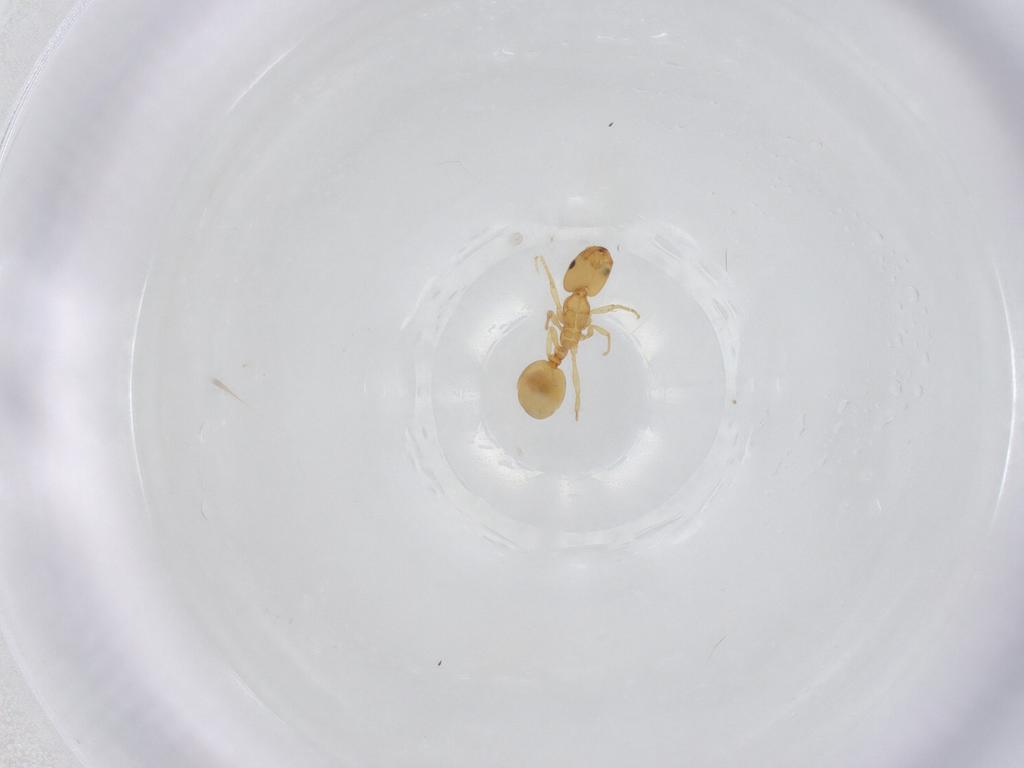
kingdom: Animalia
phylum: Arthropoda
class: Insecta
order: Hymenoptera
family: Formicidae
